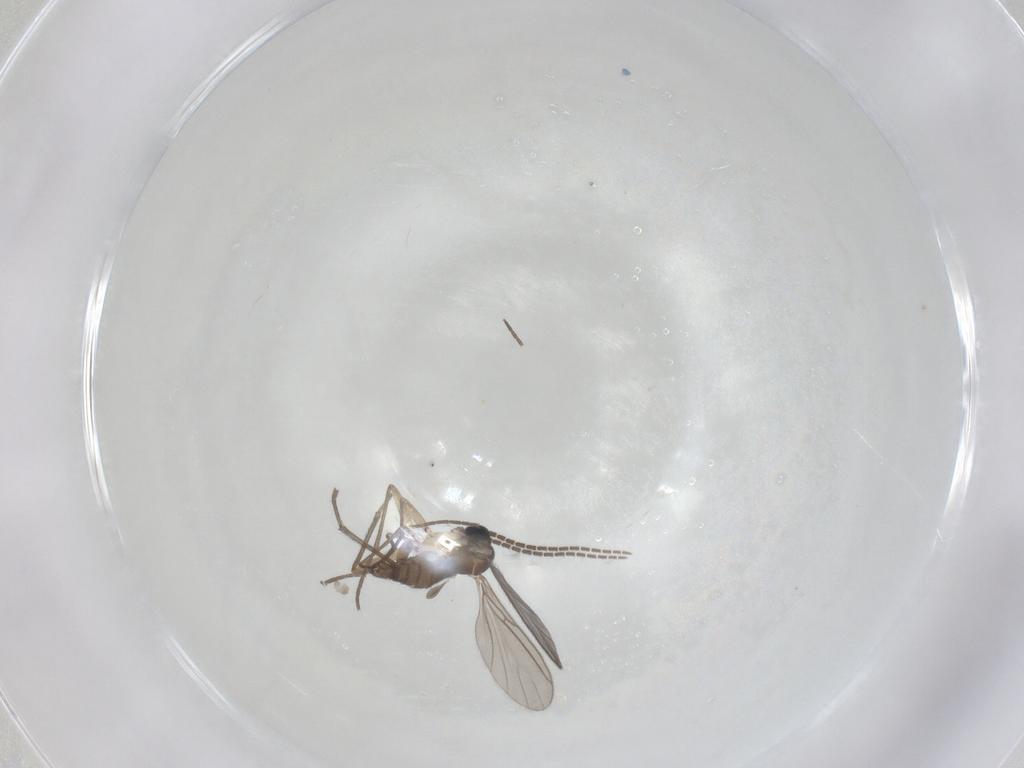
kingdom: Animalia
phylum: Arthropoda
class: Insecta
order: Diptera
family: Sciaridae
